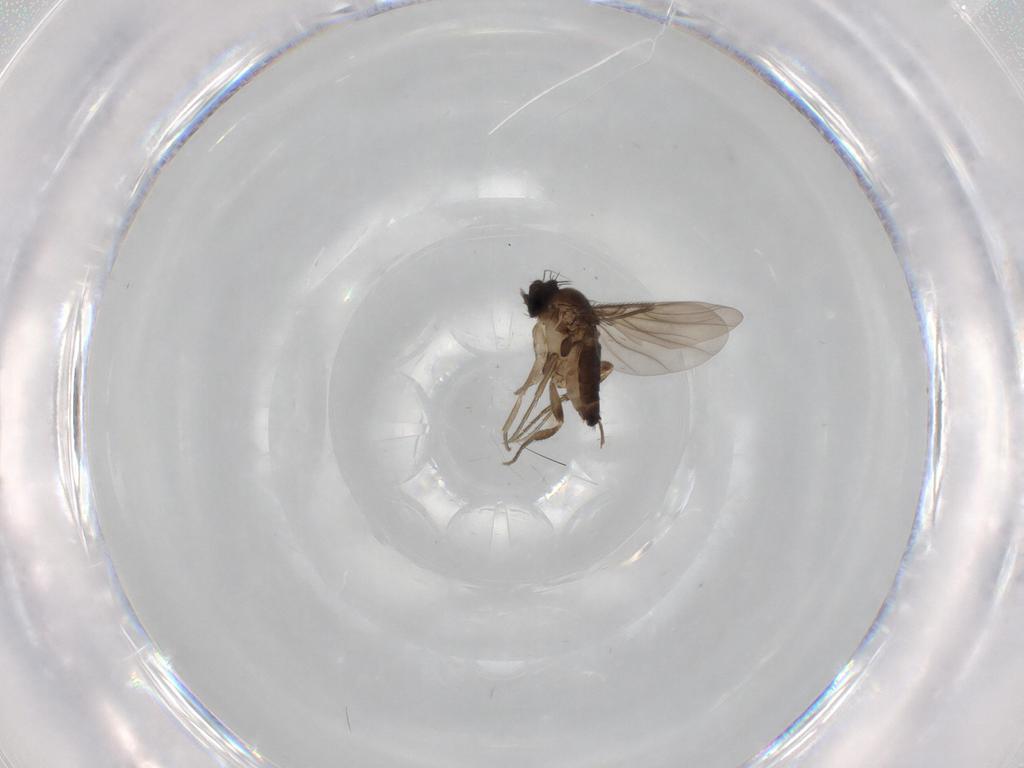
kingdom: Animalia
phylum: Arthropoda
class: Insecta
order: Diptera
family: Phoridae
